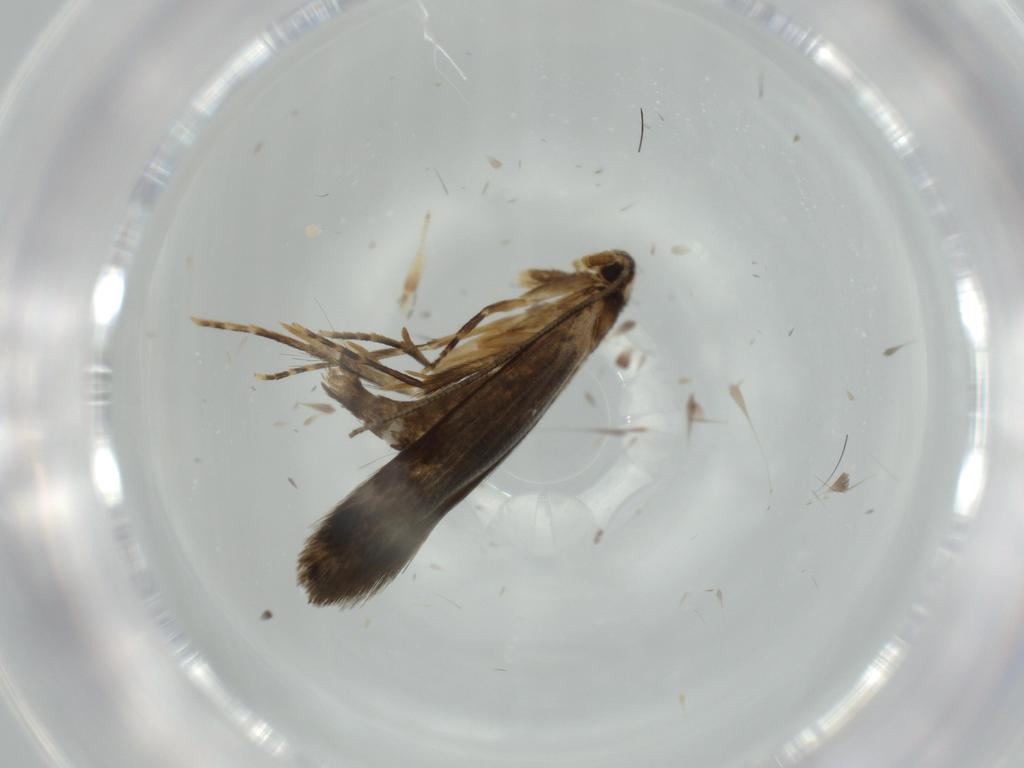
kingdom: Animalia
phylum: Arthropoda
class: Insecta
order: Lepidoptera
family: Tineidae
